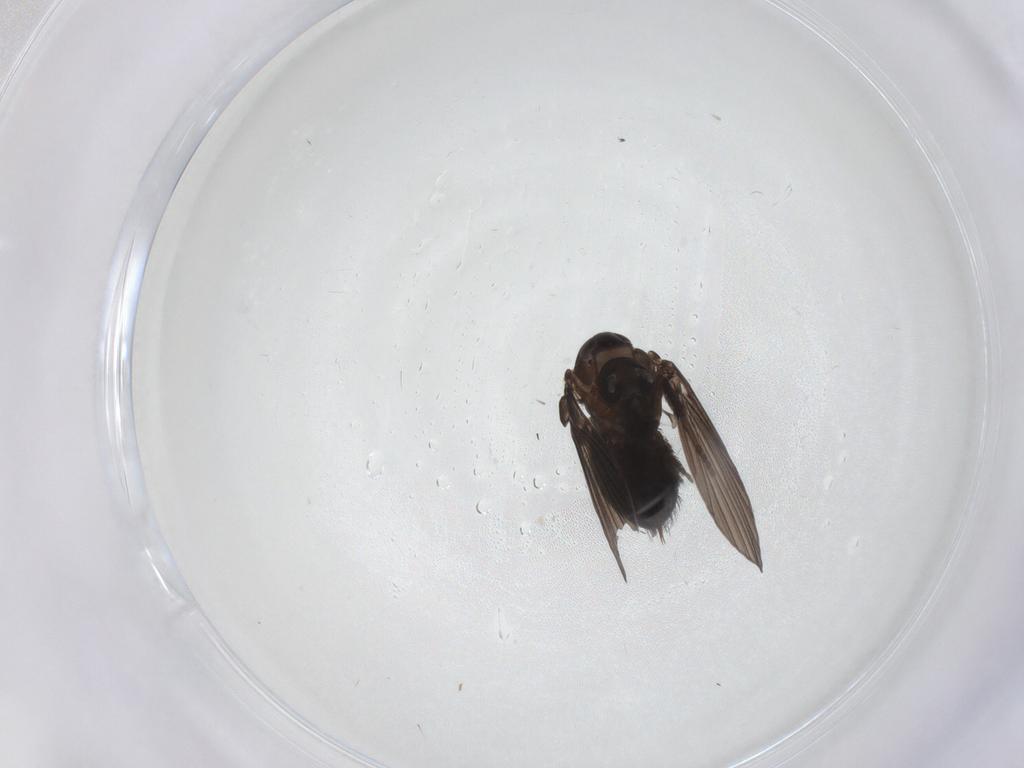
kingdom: Animalia
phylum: Arthropoda
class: Insecta
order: Diptera
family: Psychodidae
